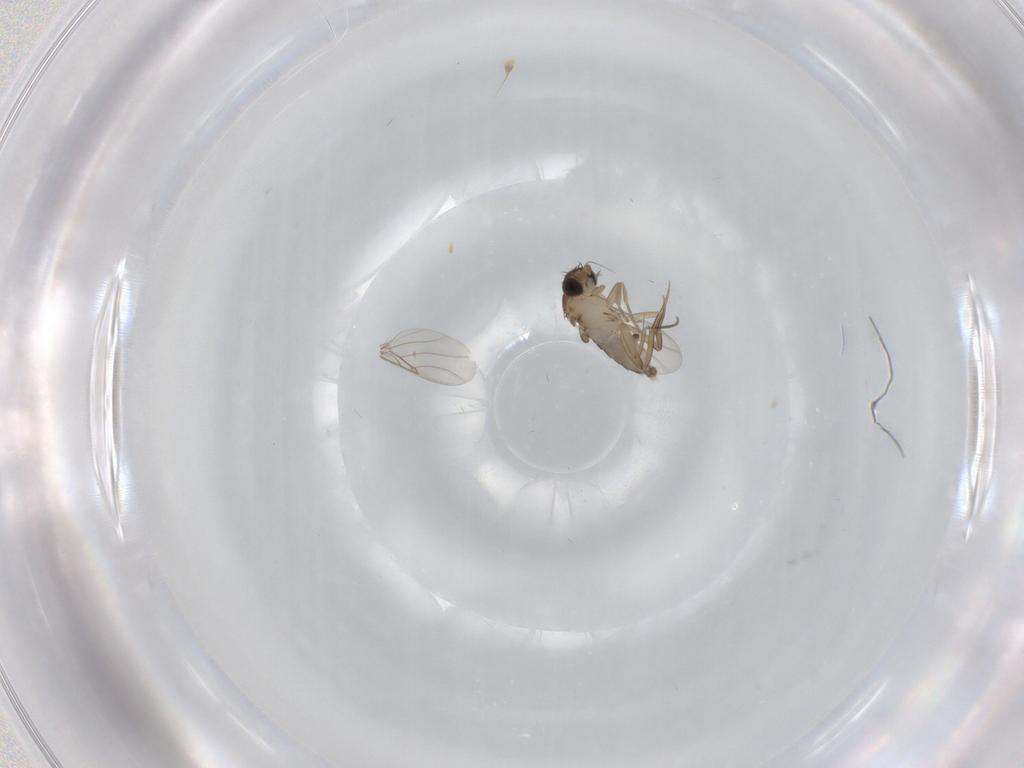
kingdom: Animalia
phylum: Arthropoda
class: Insecta
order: Diptera
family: Phoridae
